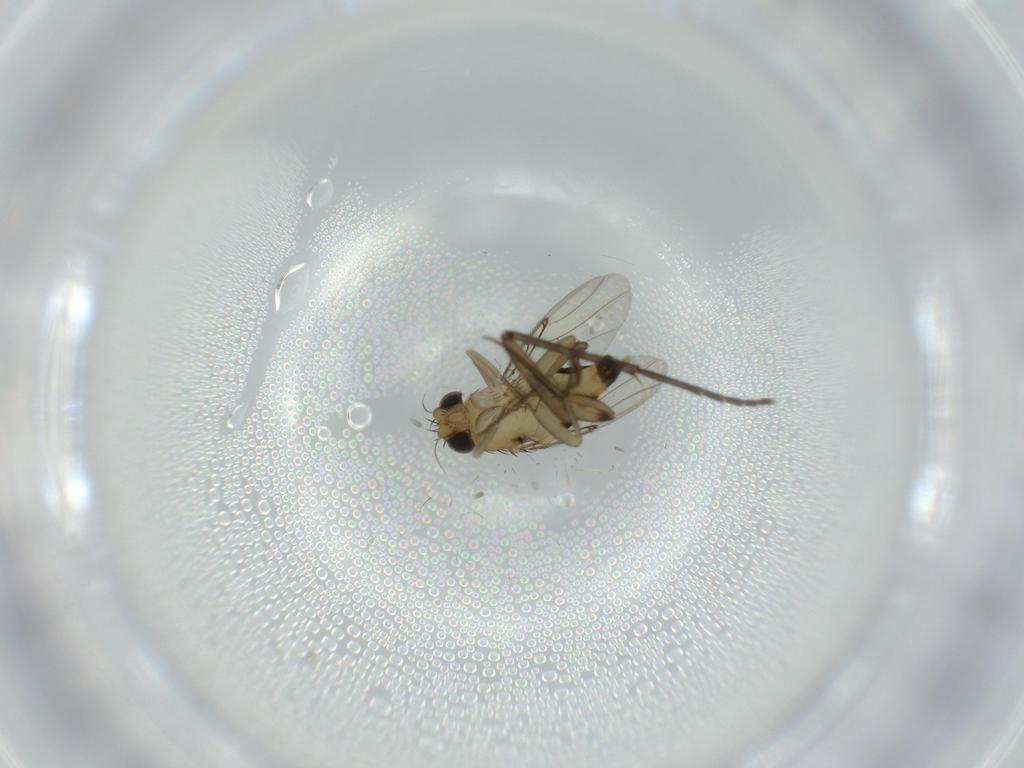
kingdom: Animalia
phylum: Arthropoda
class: Insecta
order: Diptera
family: Phoridae
